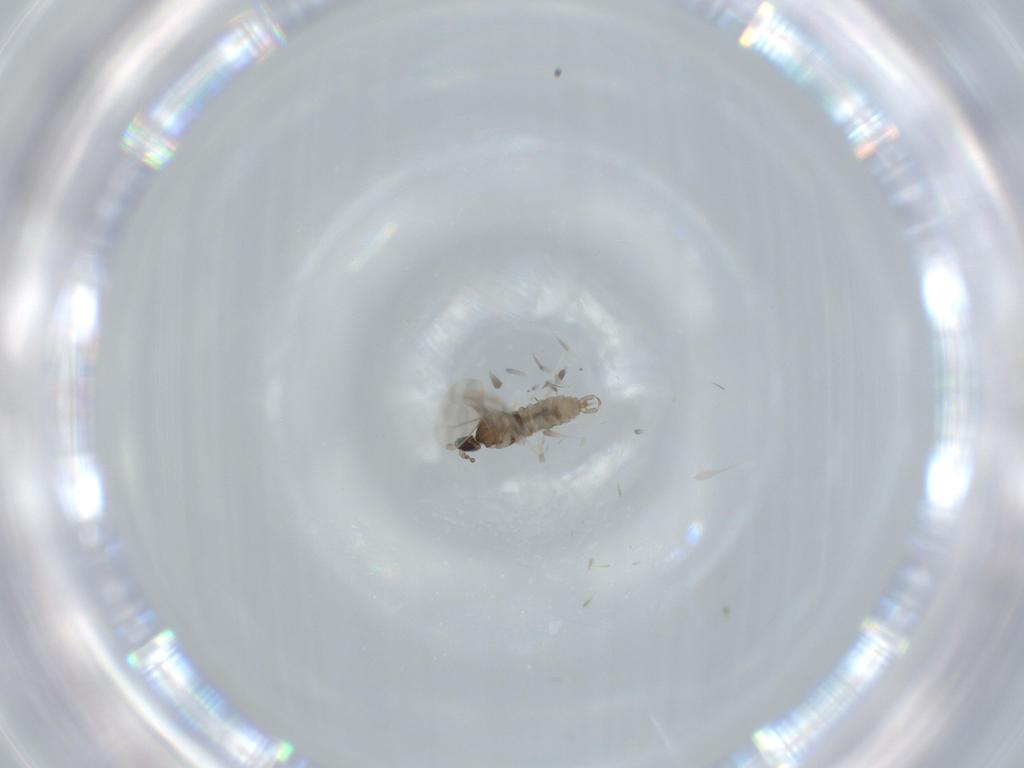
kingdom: Animalia
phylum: Arthropoda
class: Insecta
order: Diptera
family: Cecidomyiidae
